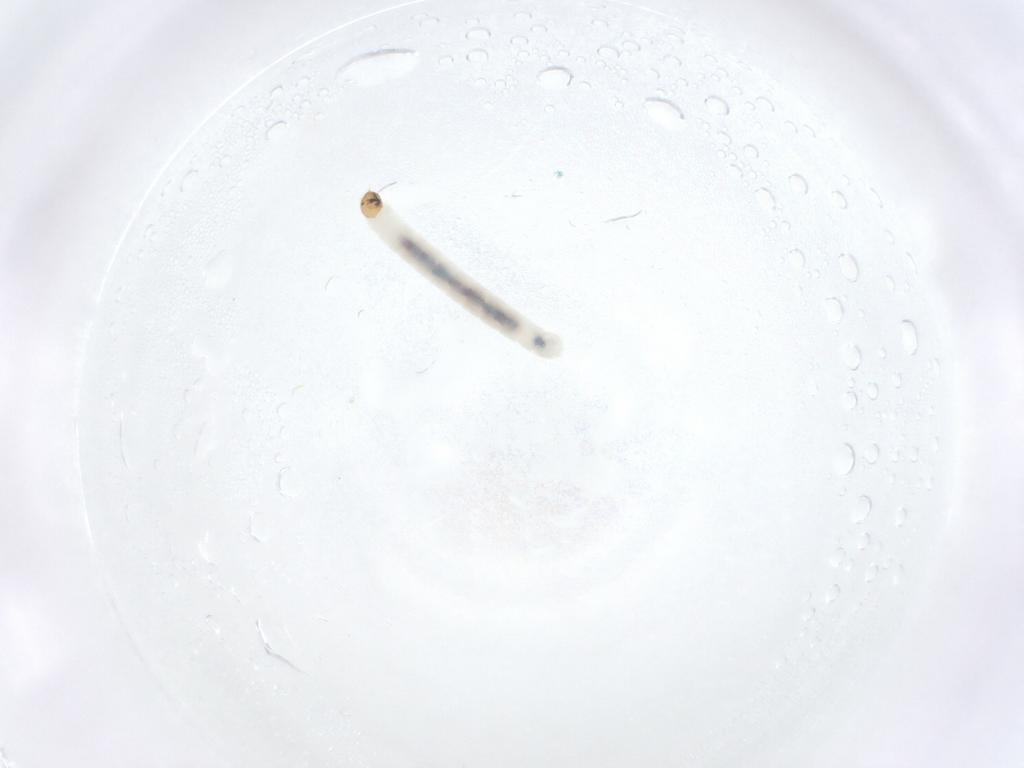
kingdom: Animalia
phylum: Arthropoda
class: Insecta
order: Diptera
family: Chironomidae
